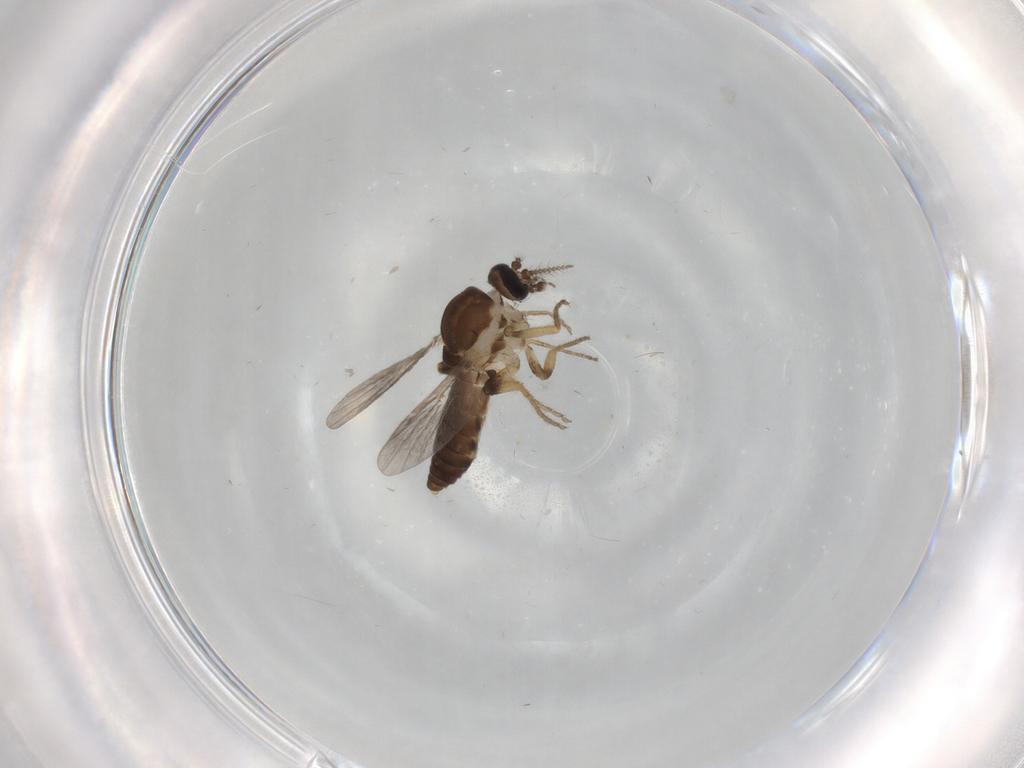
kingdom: Animalia
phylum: Arthropoda
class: Insecta
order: Diptera
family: Ceratopogonidae
